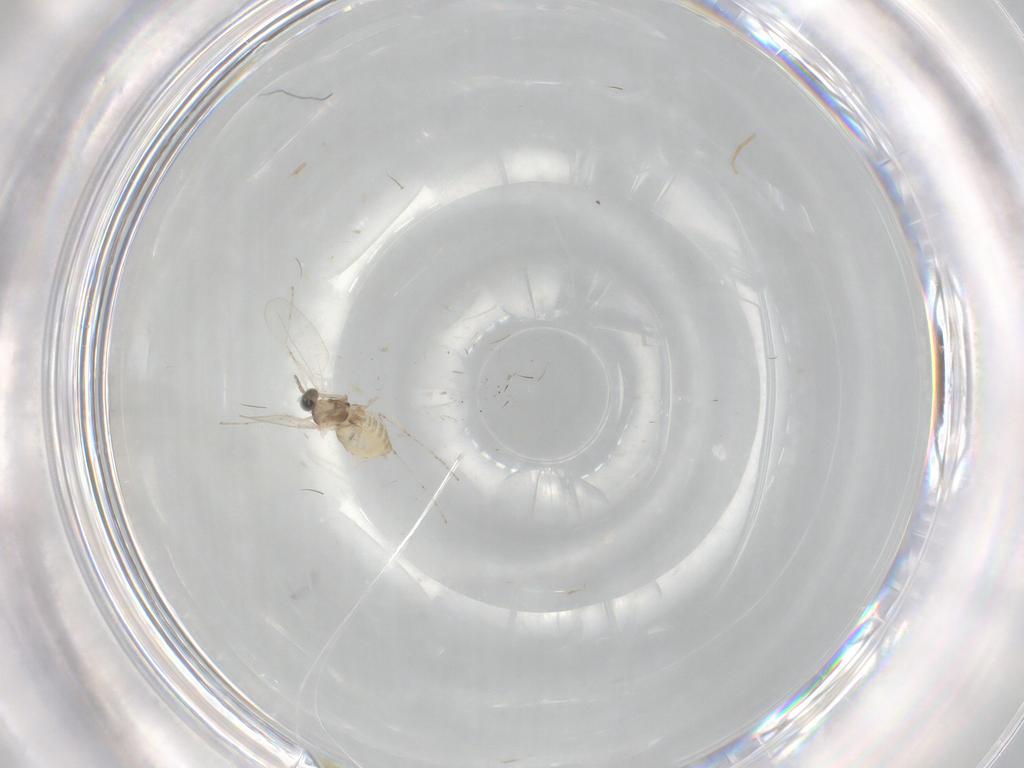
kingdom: Animalia
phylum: Arthropoda
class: Insecta
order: Diptera
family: Cecidomyiidae
